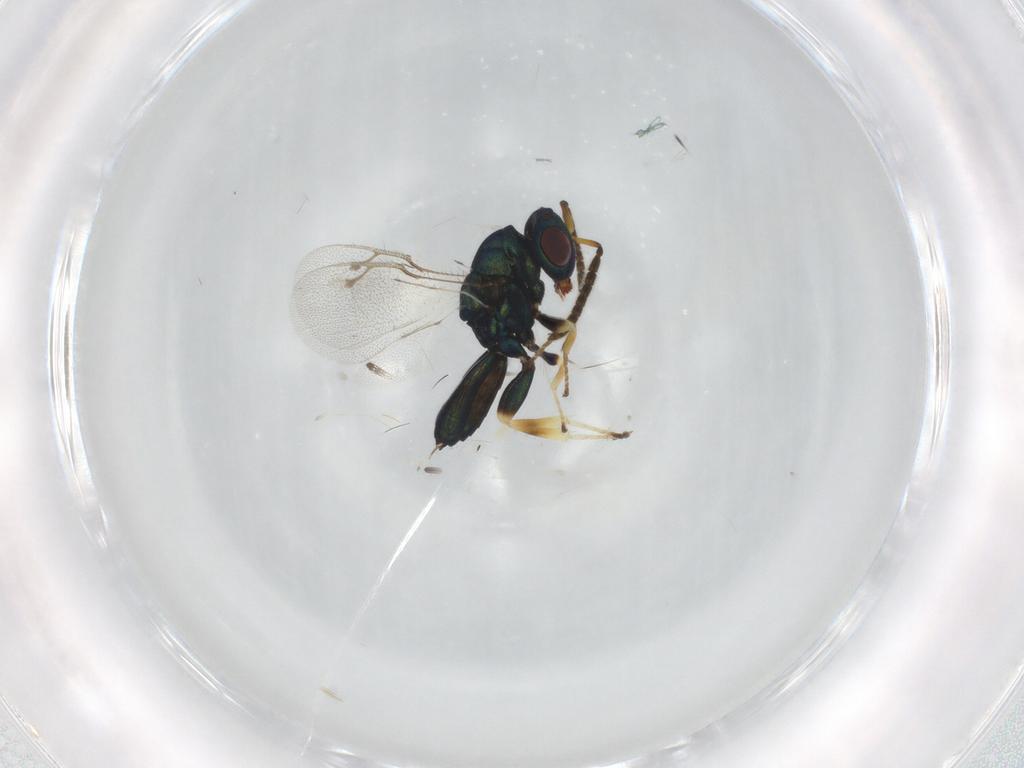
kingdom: Animalia
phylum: Arthropoda
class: Insecta
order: Hymenoptera
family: Pteromalidae
